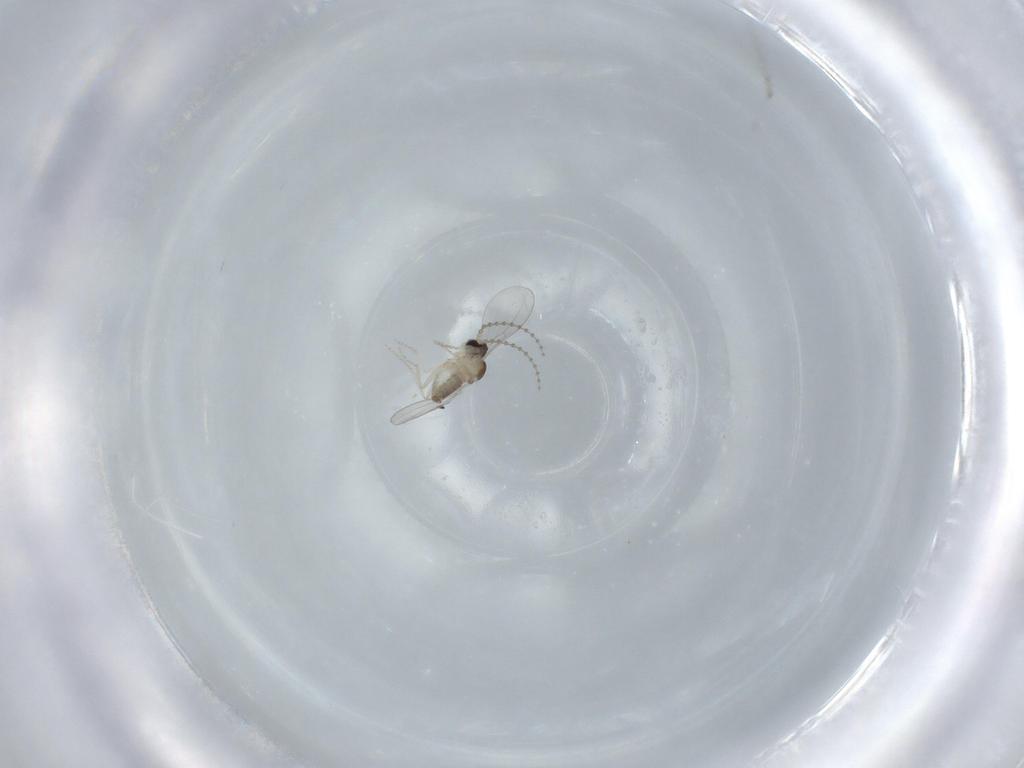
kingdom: Animalia
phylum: Arthropoda
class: Insecta
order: Diptera
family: Cecidomyiidae
